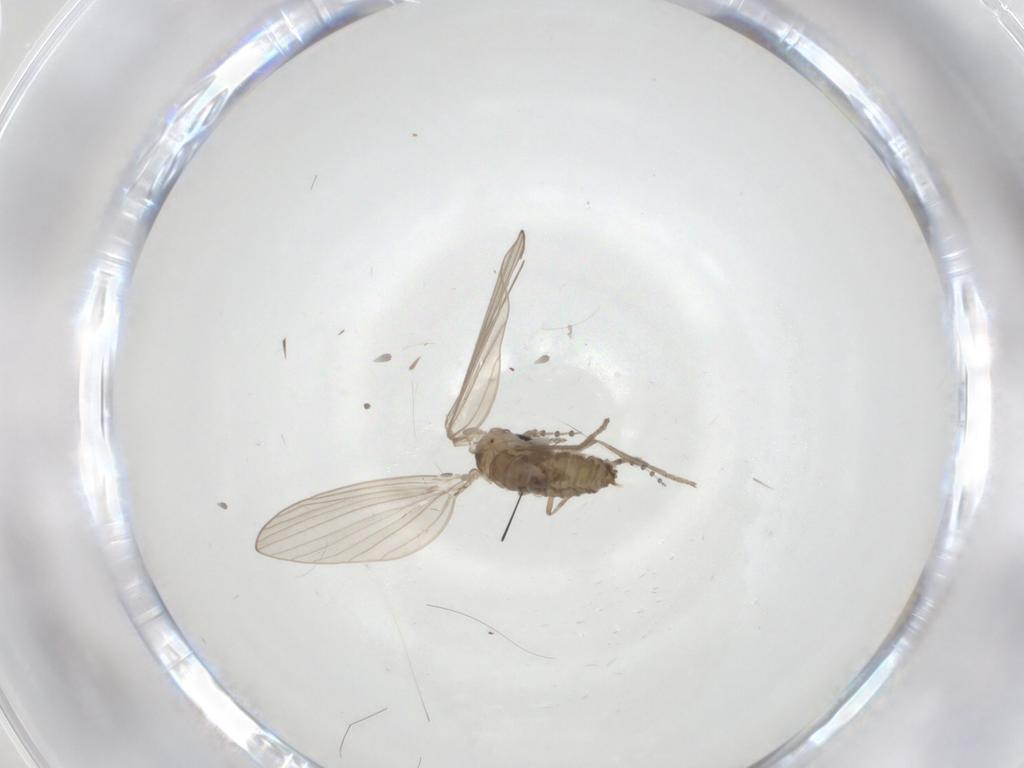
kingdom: Animalia
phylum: Arthropoda
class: Insecta
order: Diptera
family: Psychodidae
